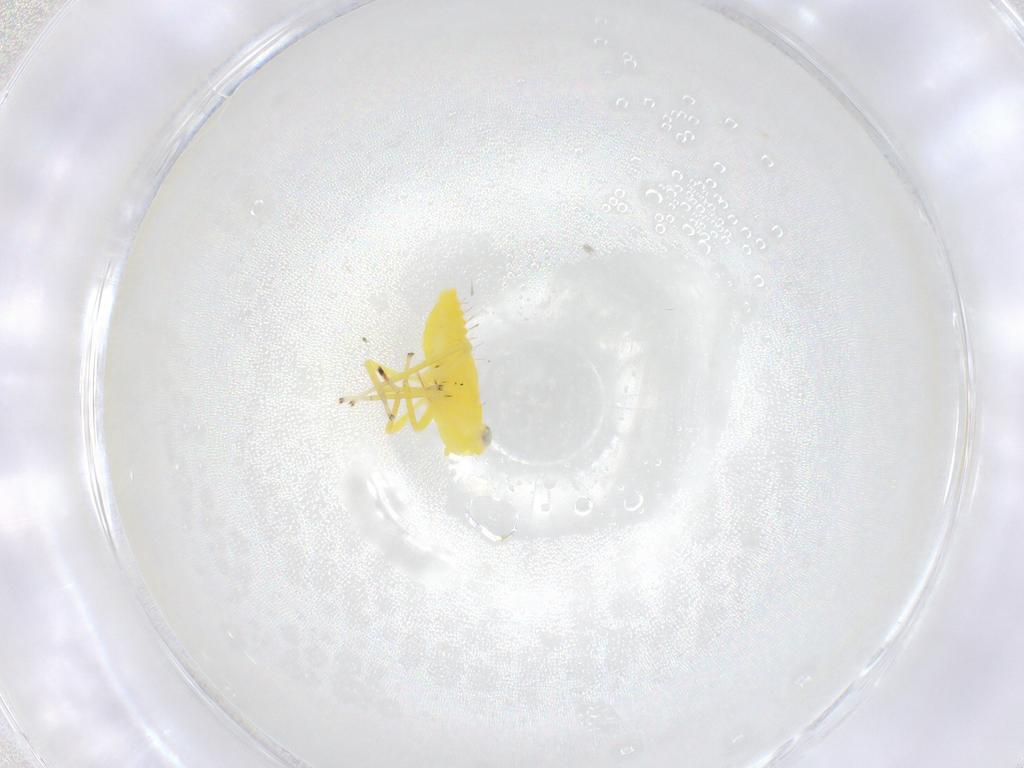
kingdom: Animalia
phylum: Arthropoda
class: Insecta
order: Hemiptera
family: Cicadellidae
